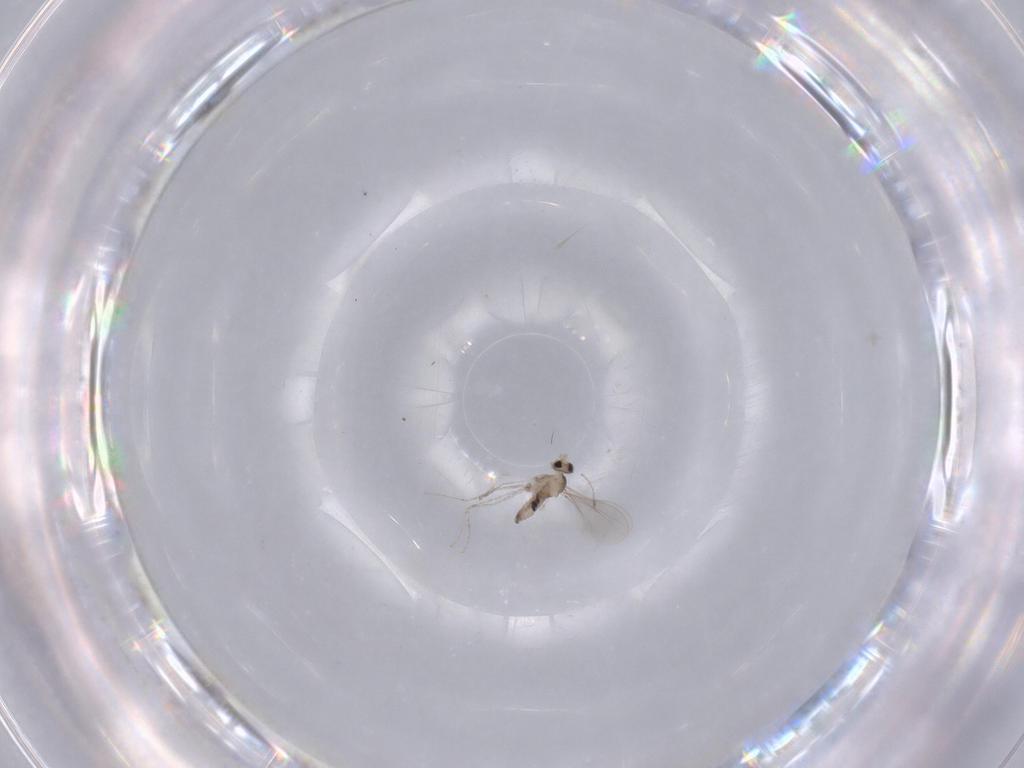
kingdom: Animalia
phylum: Arthropoda
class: Insecta
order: Diptera
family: Cecidomyiidae
